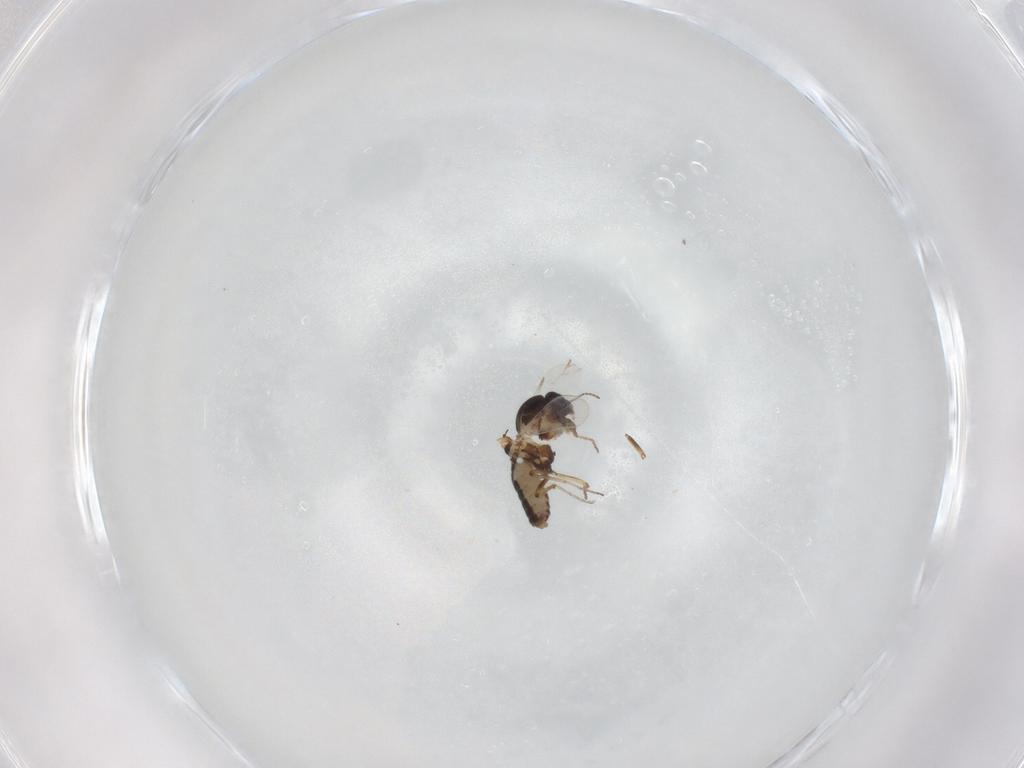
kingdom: Animalia
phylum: Arthropoda
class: Insecta
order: Diptera
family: Ceratopogonidae
